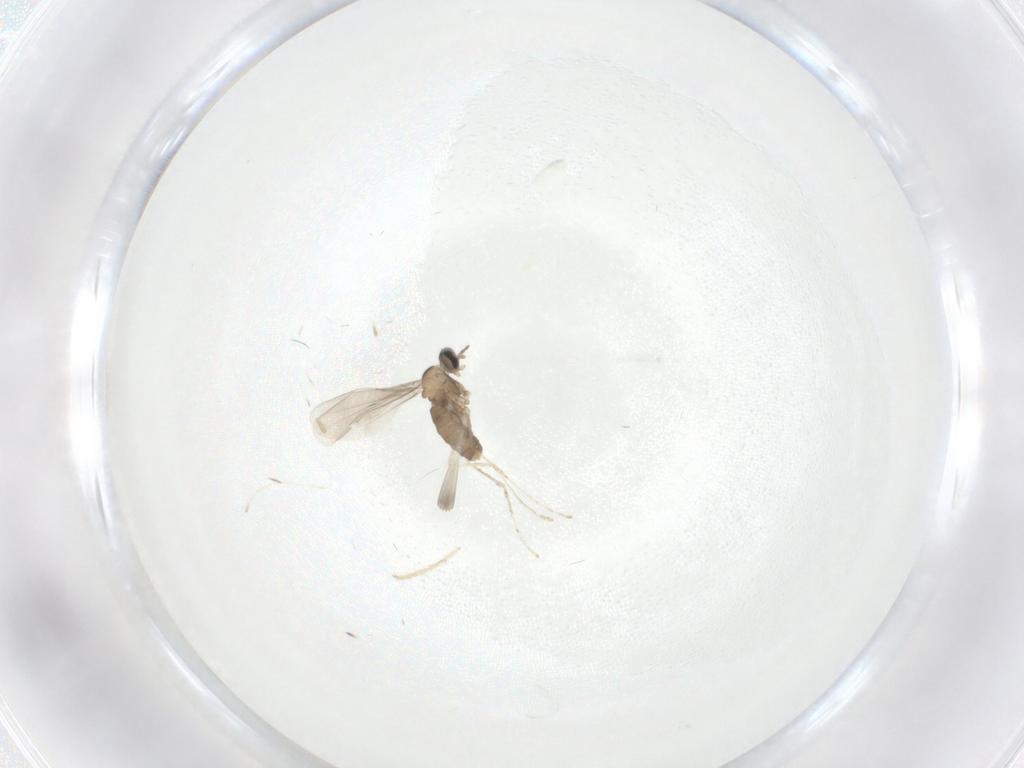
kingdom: Animalia
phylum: Arthropoda
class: Insecta
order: Diptera
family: Cecidomyiidae
